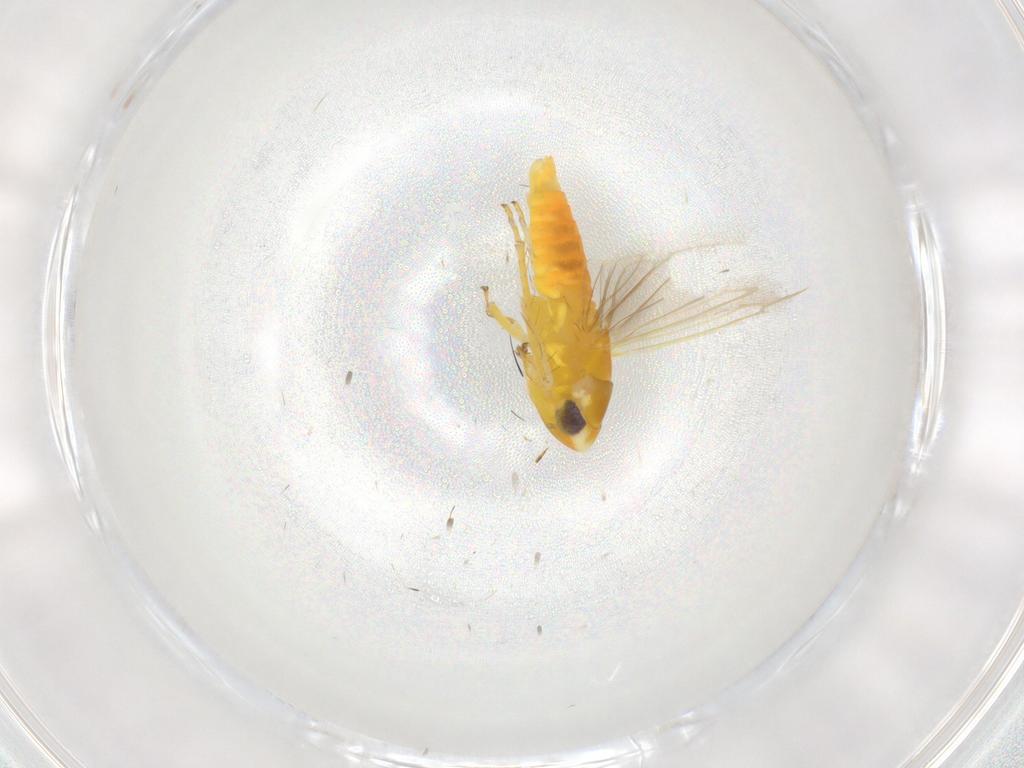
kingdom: Animalia
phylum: Arthropoda
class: Insecta
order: Hemiptera
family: Cicadellidae
